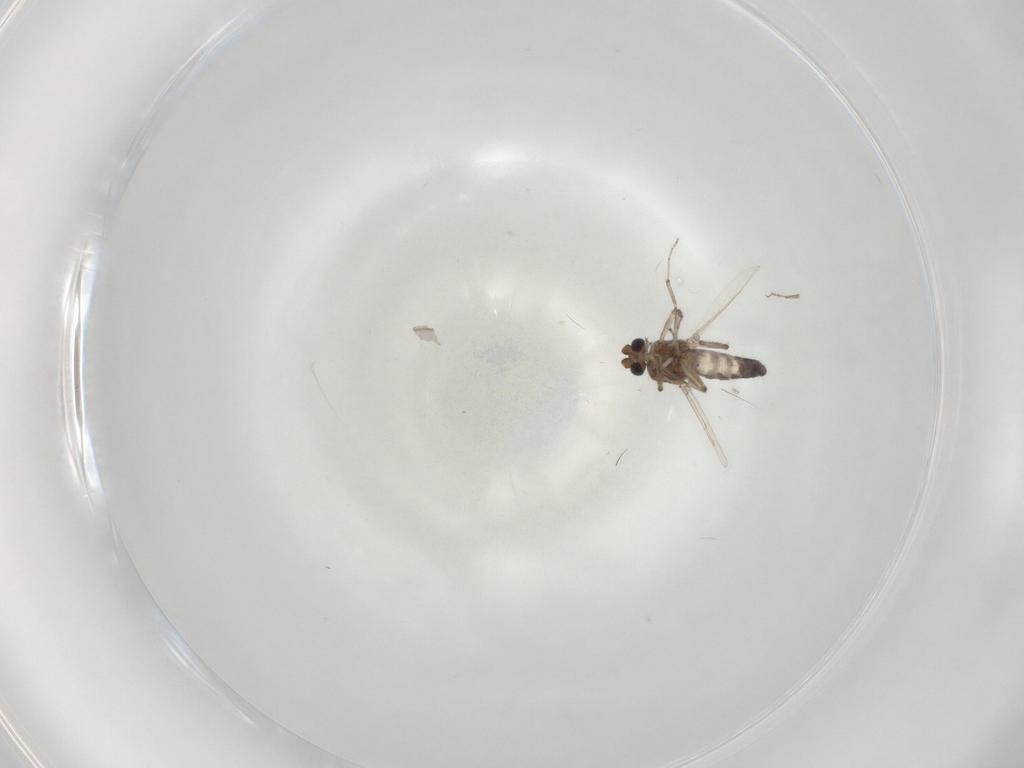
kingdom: Animalia
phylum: Arthropoda
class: Insecta
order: Diptera
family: Ceratopogonidae
